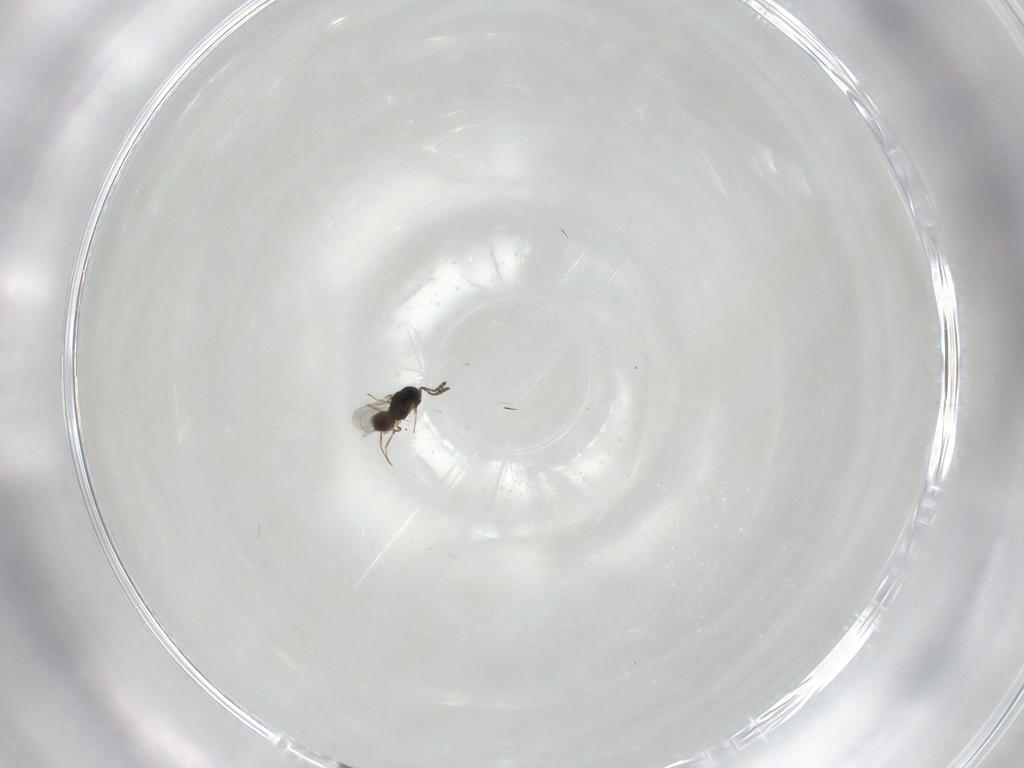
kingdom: Animalia
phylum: Arthropoda
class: Insecta
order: Hymenoptera
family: Scelionidae
